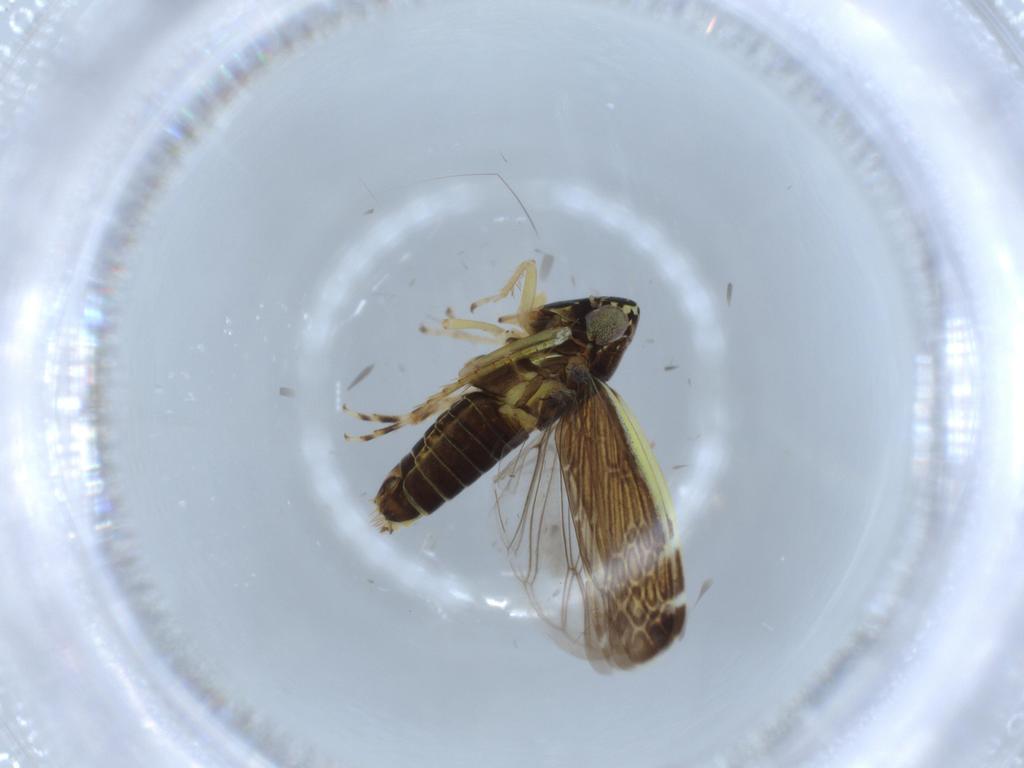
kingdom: Animalia
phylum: Arthropoda
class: Insecta
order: Hemiptera
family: Cicadellidae
